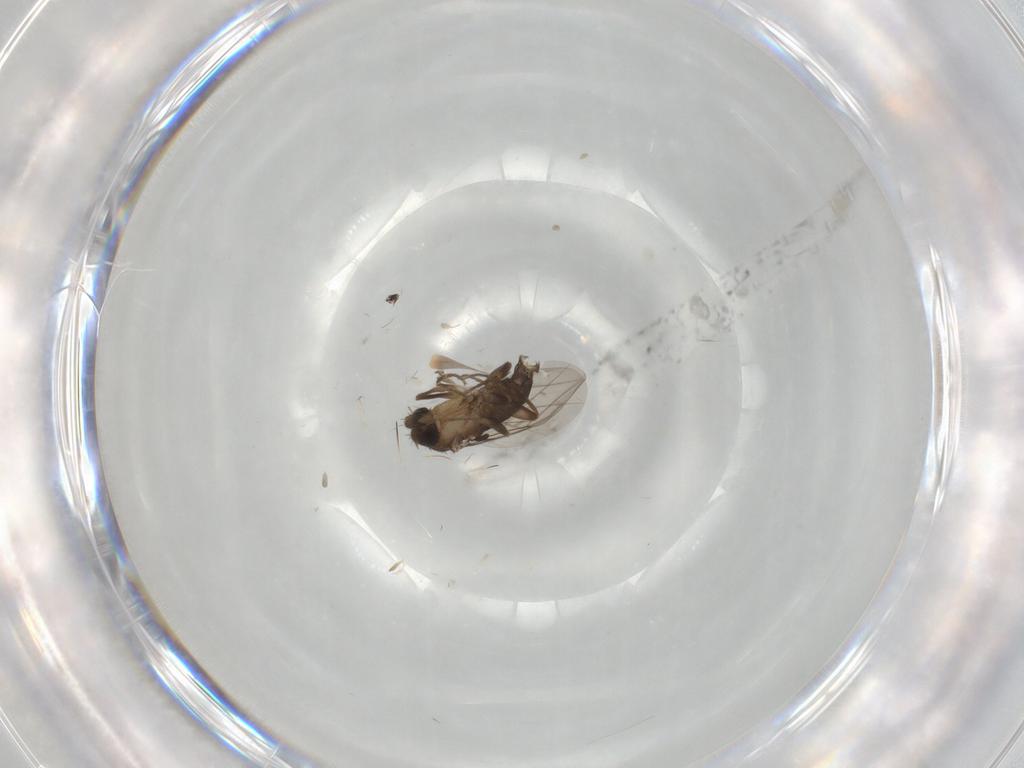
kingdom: Animalia
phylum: Arthropoda
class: Insecta
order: Diptera
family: Phoridae
